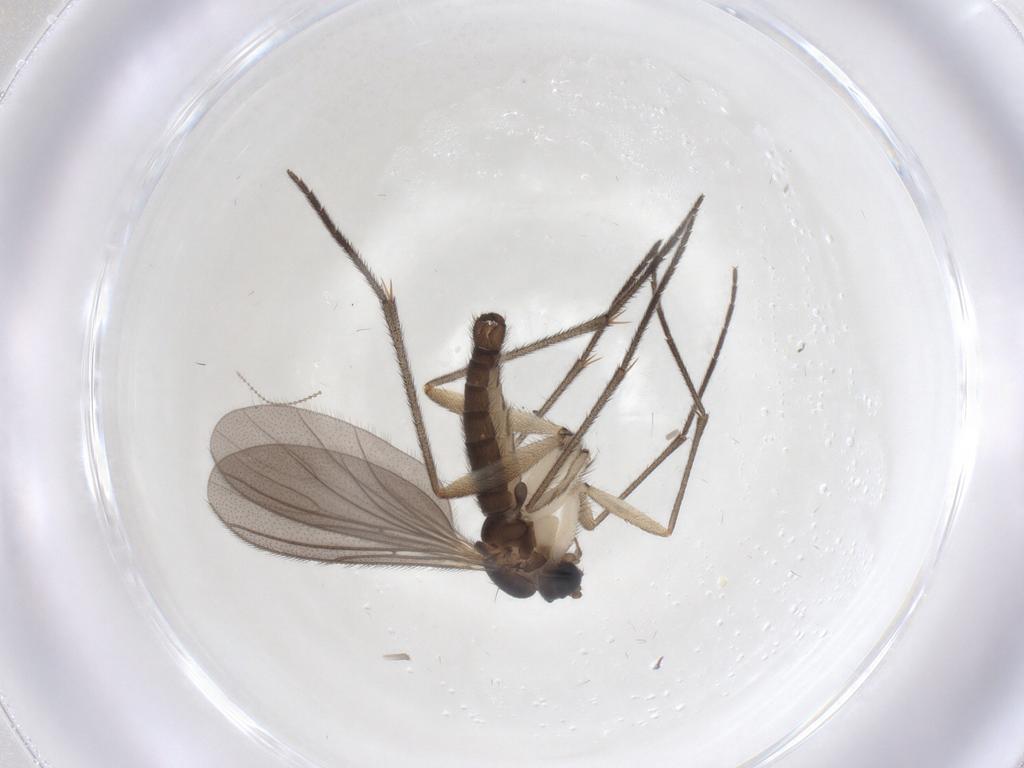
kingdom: Animalia
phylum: Arthropoda
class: Insecta
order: Diptera
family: Sciaridae
